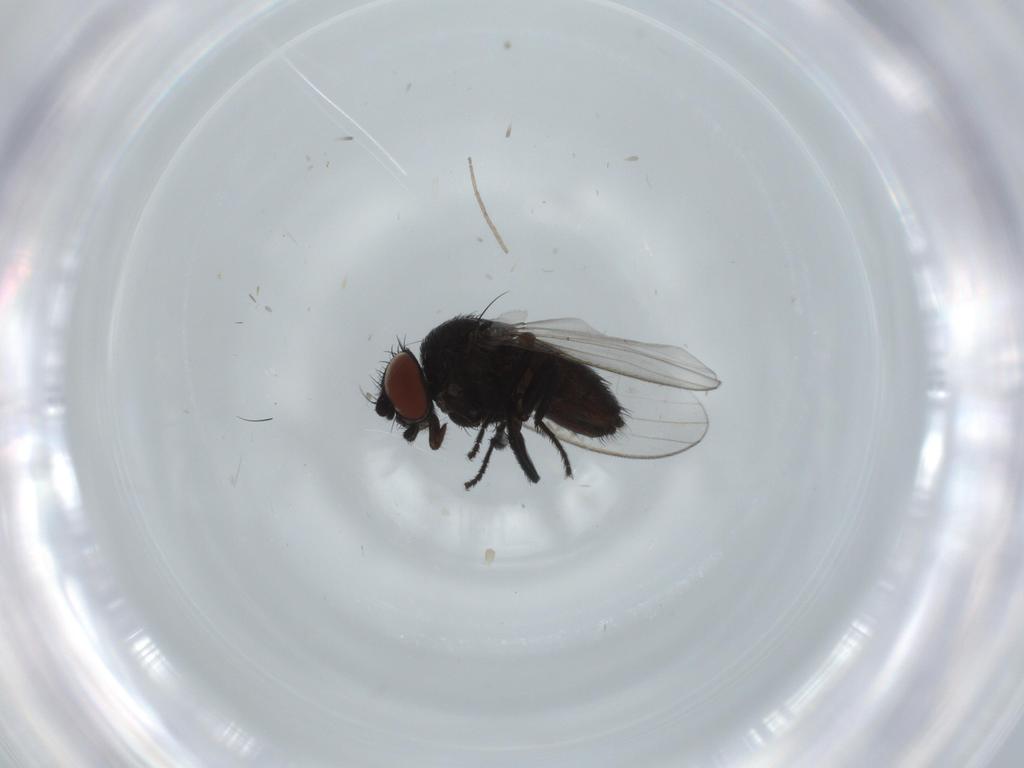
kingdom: Animalia
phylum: Arthropoda
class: Insecta
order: Diptera
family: Milichiidae
